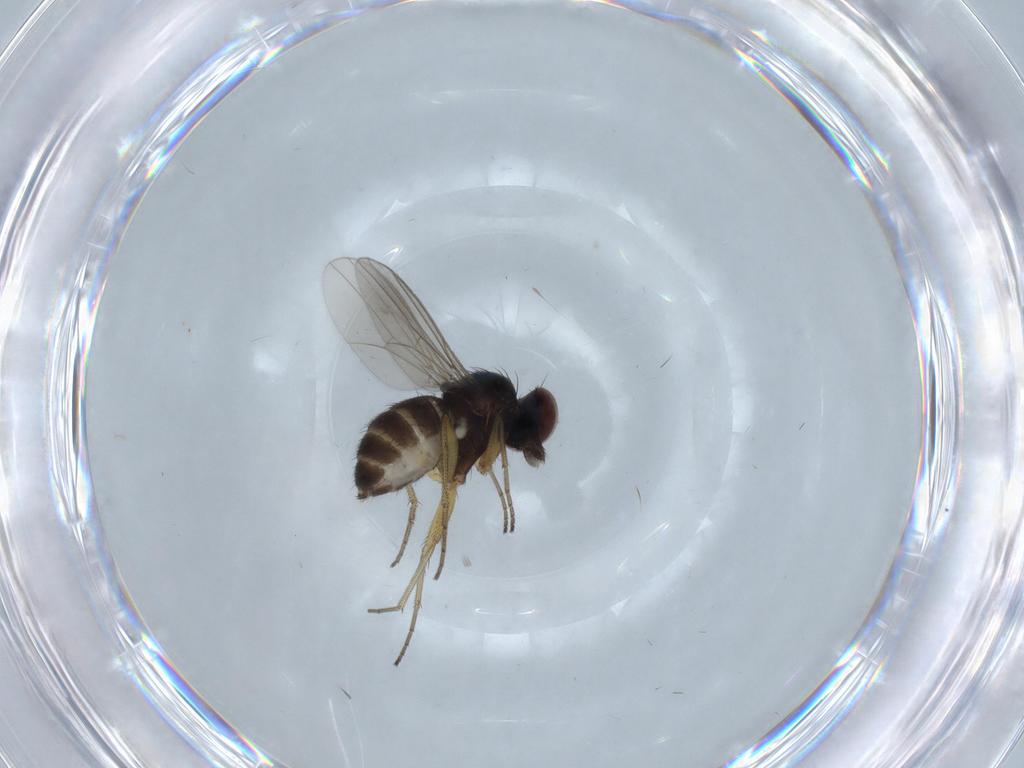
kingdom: Animalia
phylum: Arthropoda
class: Insecta
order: Diptera
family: Dolichopodidae
